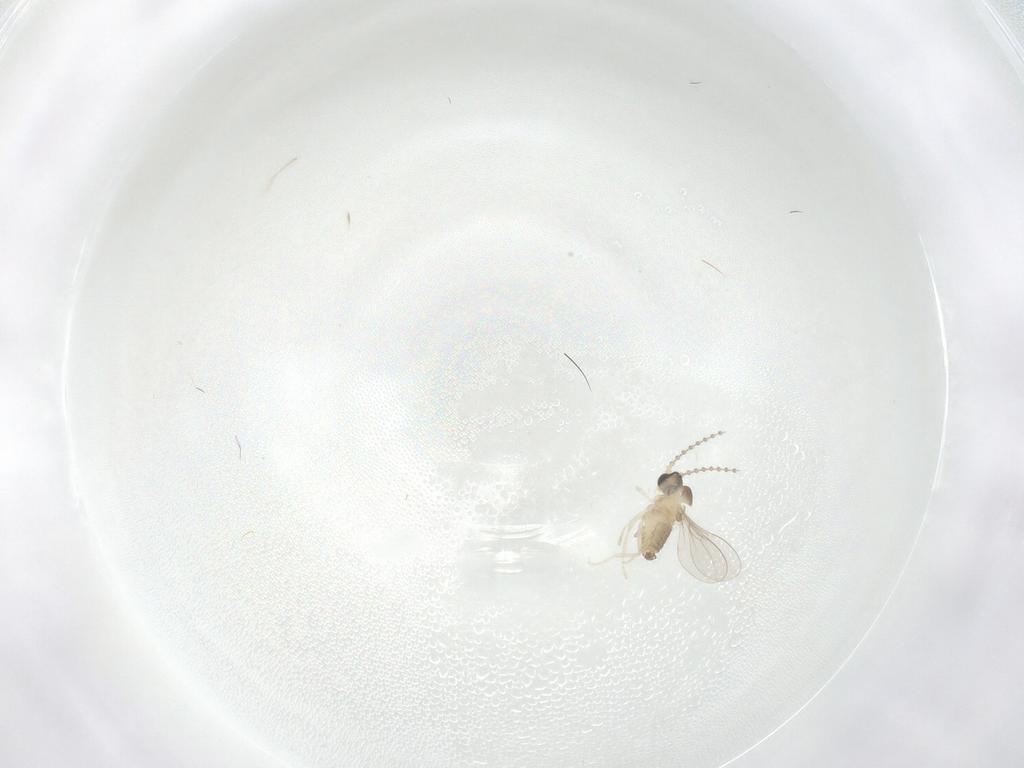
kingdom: Animalia
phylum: Arthropoda
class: Insecta
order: Diptera
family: Cecidomyiidae
